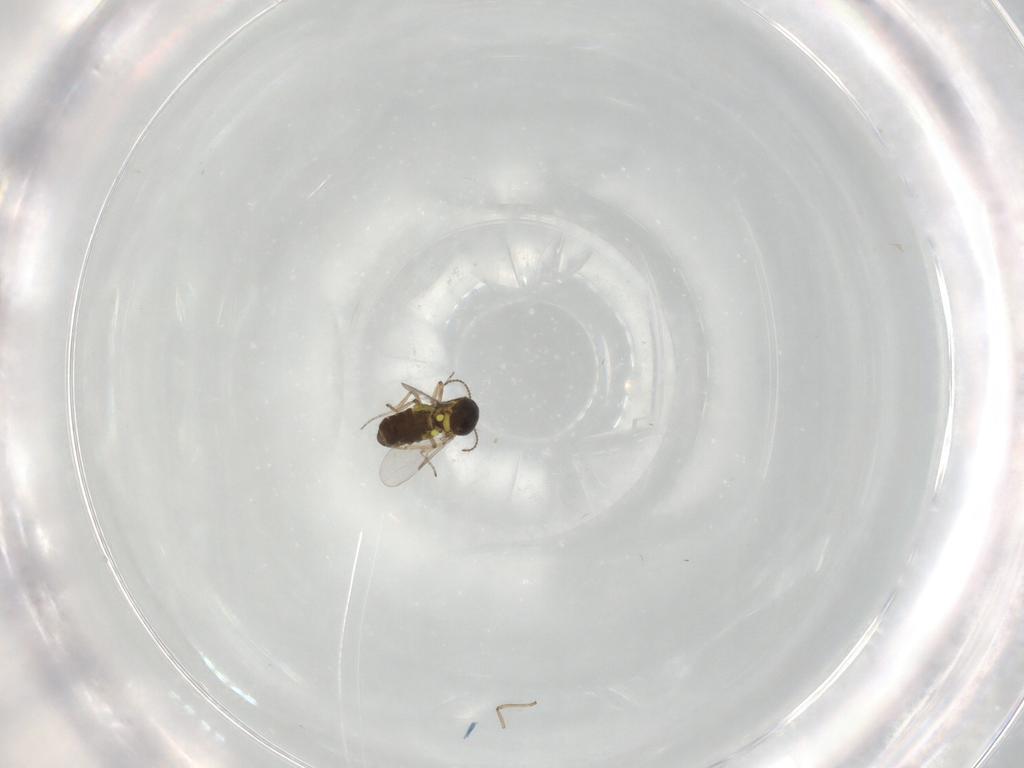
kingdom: Animalia
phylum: Arthropoda
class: Insecta
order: Diptera
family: Ceratopogonidae
